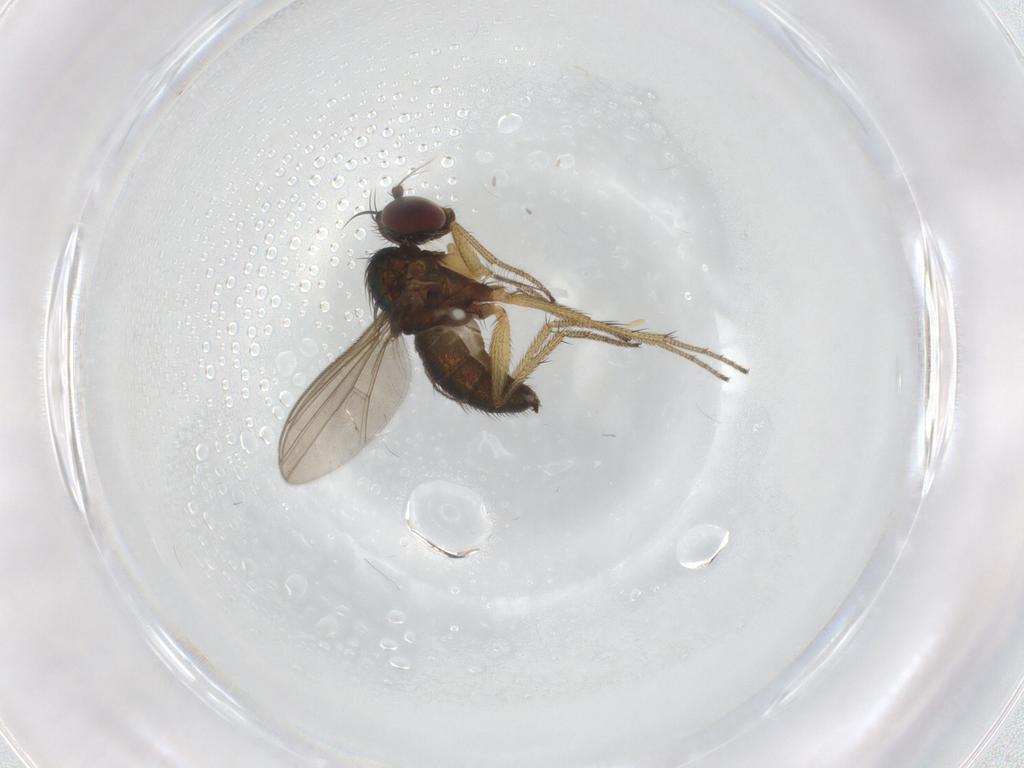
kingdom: Animalia
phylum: Arthropoda
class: Insecta
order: Diptera
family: Chironomidae
